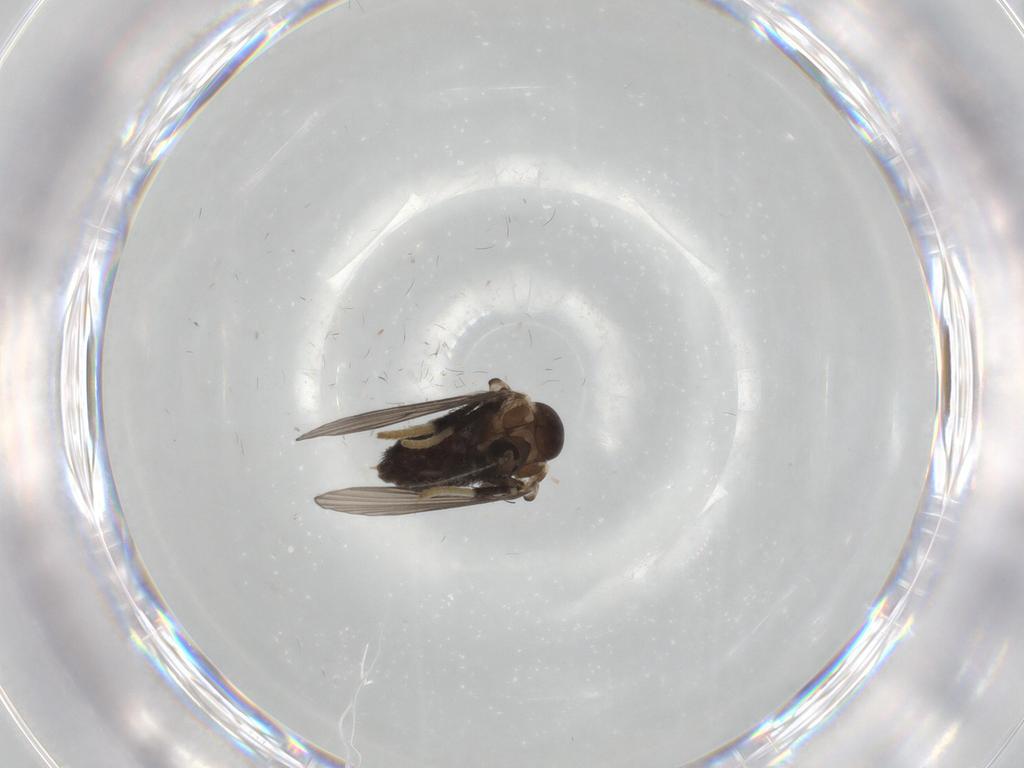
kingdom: Animalia
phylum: Arthropoda
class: Insecta
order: Diptera
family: Psychodidae
